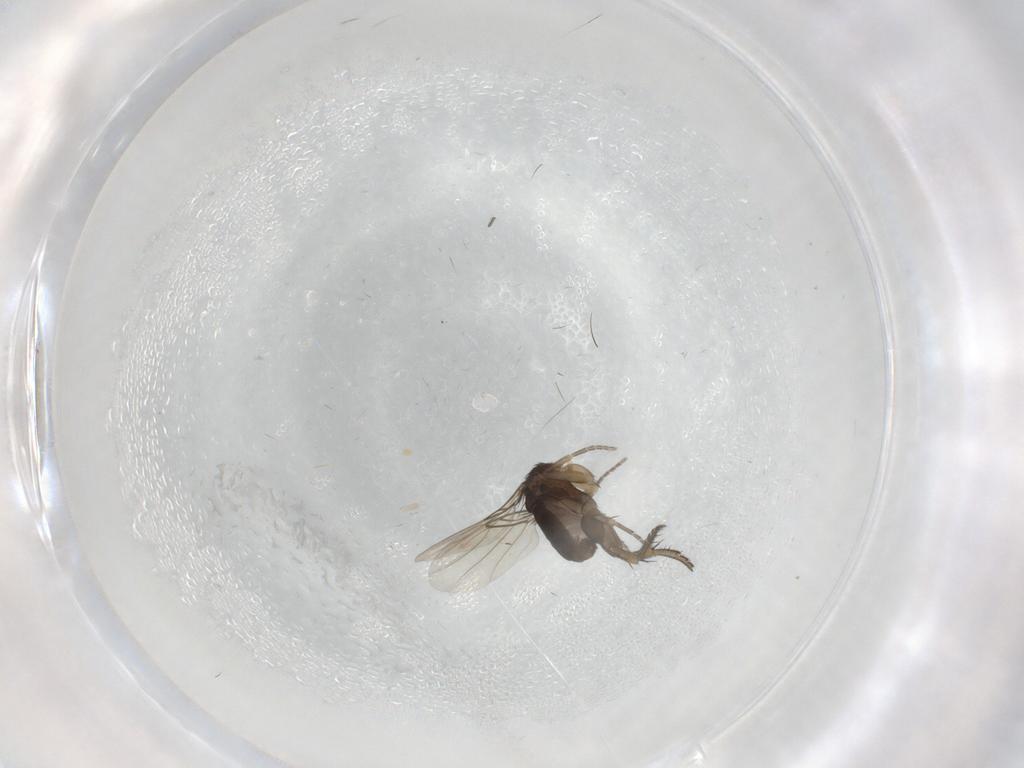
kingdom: Animalia
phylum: Arthropoda
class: Insecta
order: Diptera
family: Phoridae
